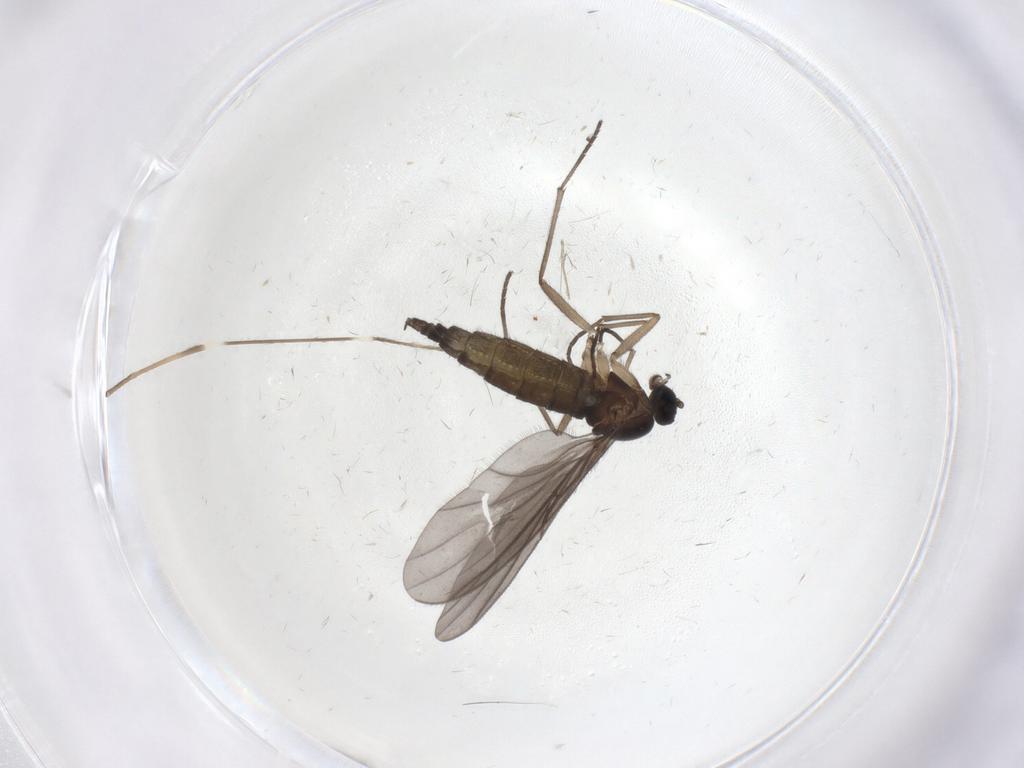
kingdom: Animalia
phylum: Arthropoda
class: Insecta
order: Diptera
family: Sciaridae
